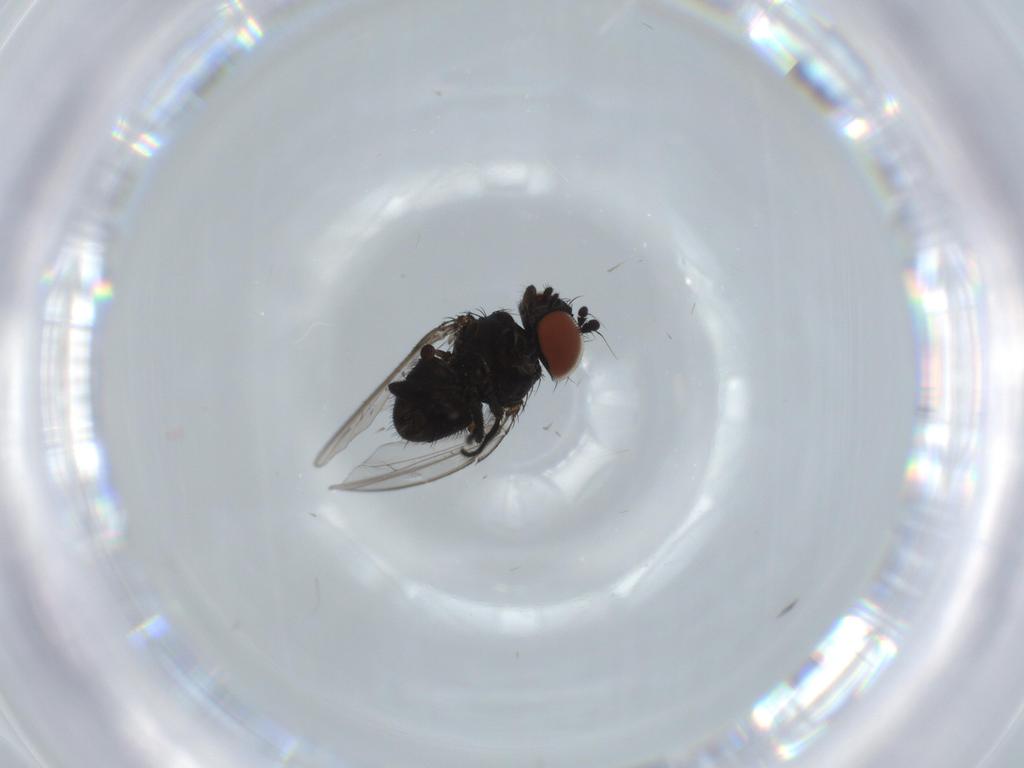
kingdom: Animalia
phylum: Arthropoda
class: Insecta
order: Diptera
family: Milichiidae
